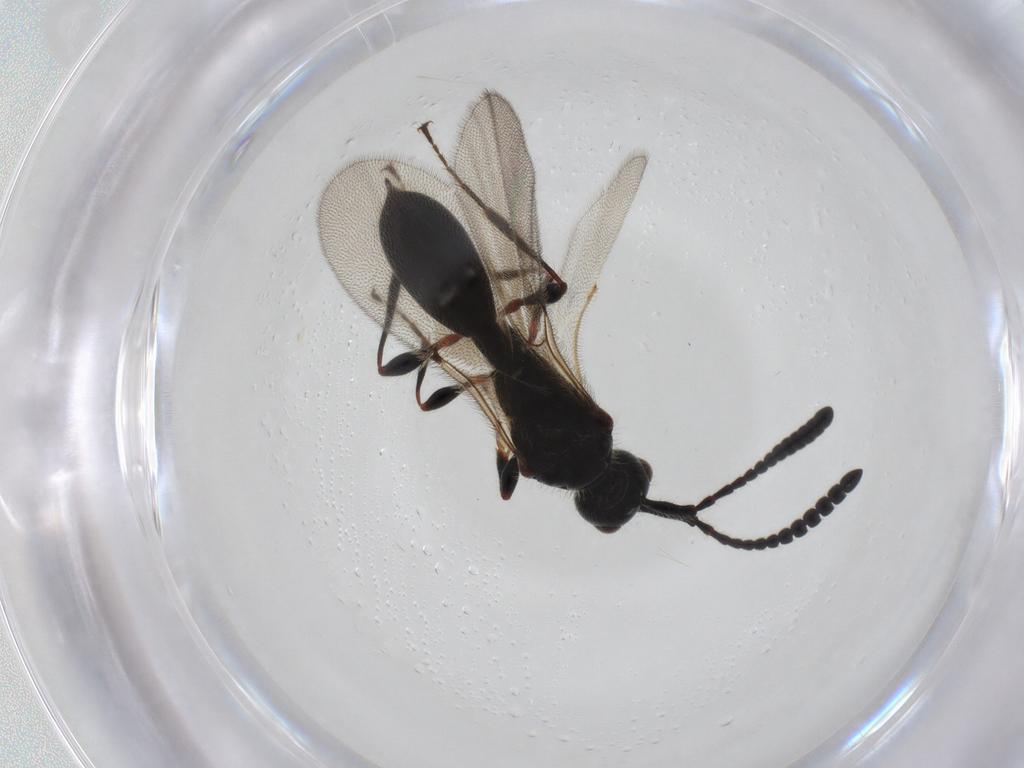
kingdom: Animalia
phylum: Arthropoda
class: Insecta
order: Hymenoptera
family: Diapriidae
